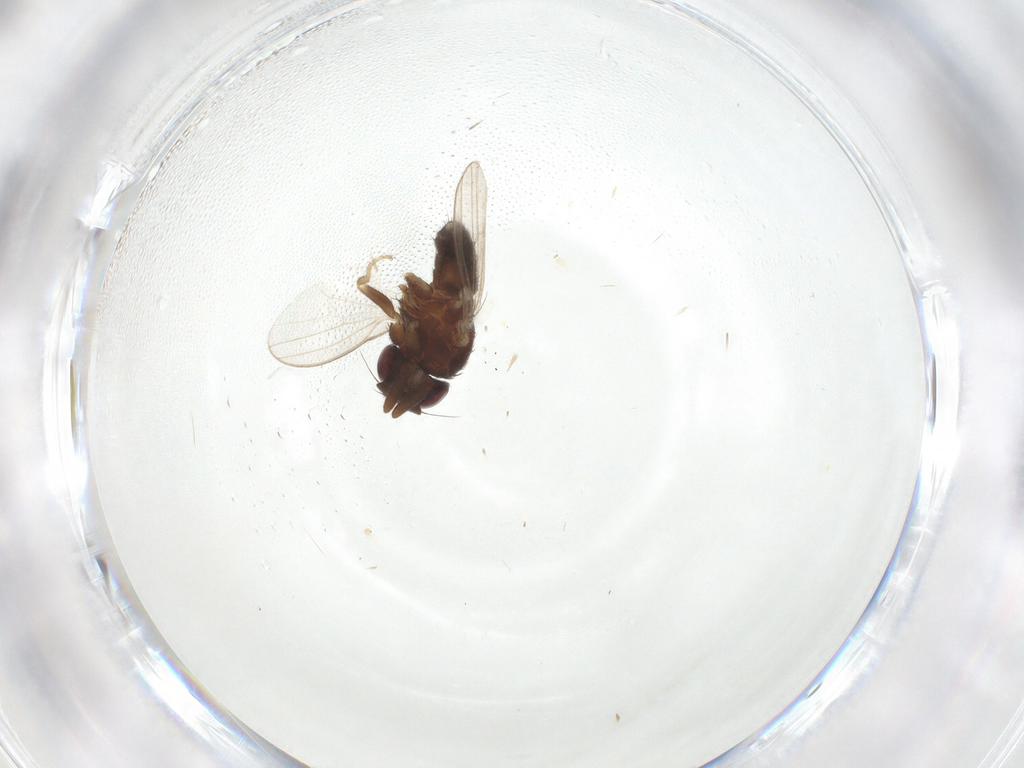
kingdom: Animalia
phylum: Arthropoda
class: Insecta
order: Diptera
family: Milichiidae
